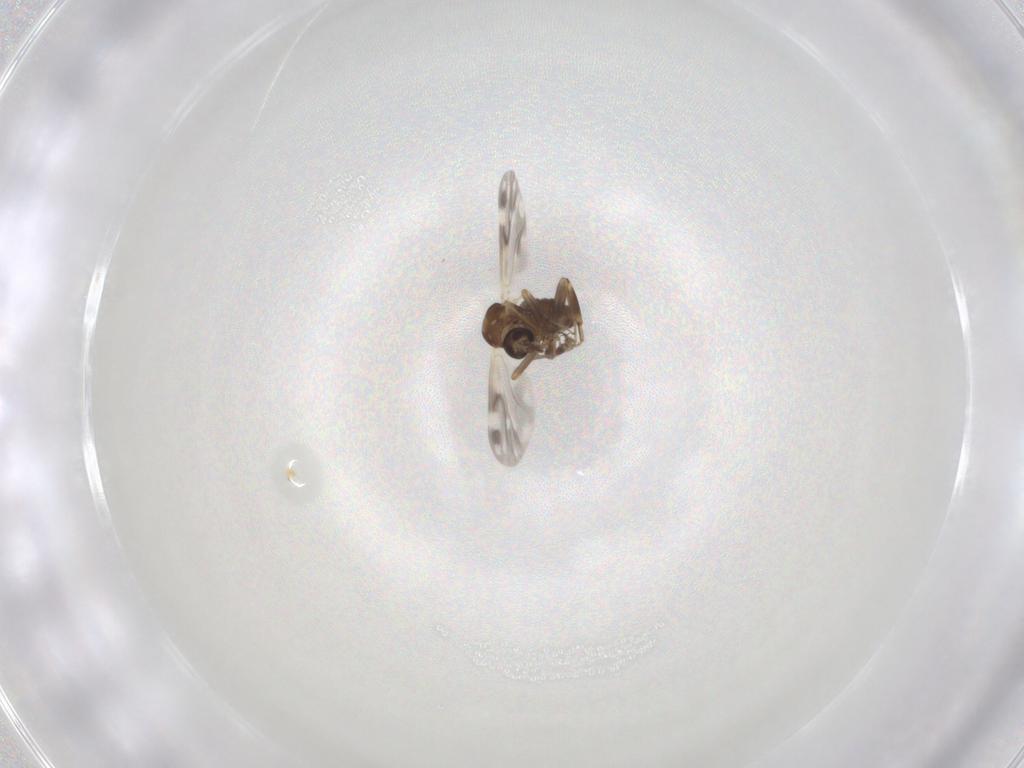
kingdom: Animalia
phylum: Arthropoda
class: Insecta
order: Diptera
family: Ceratopogonidae
